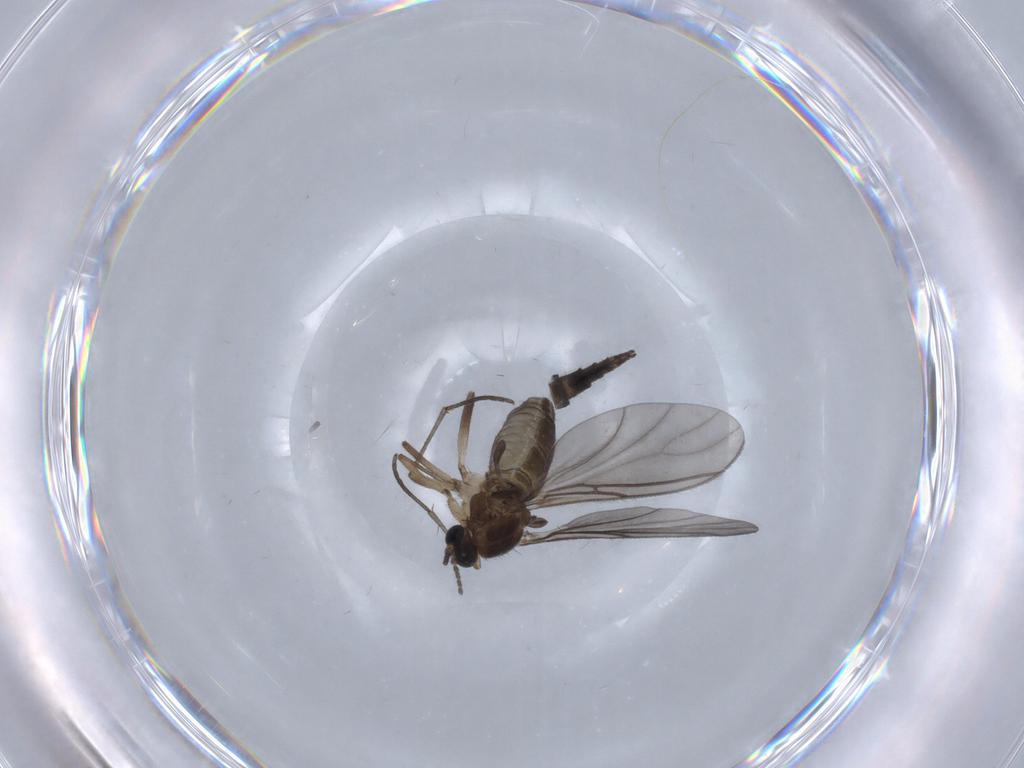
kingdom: Animalia
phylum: Arthropoda
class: Insecta
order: Diptera
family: Sciaridae
